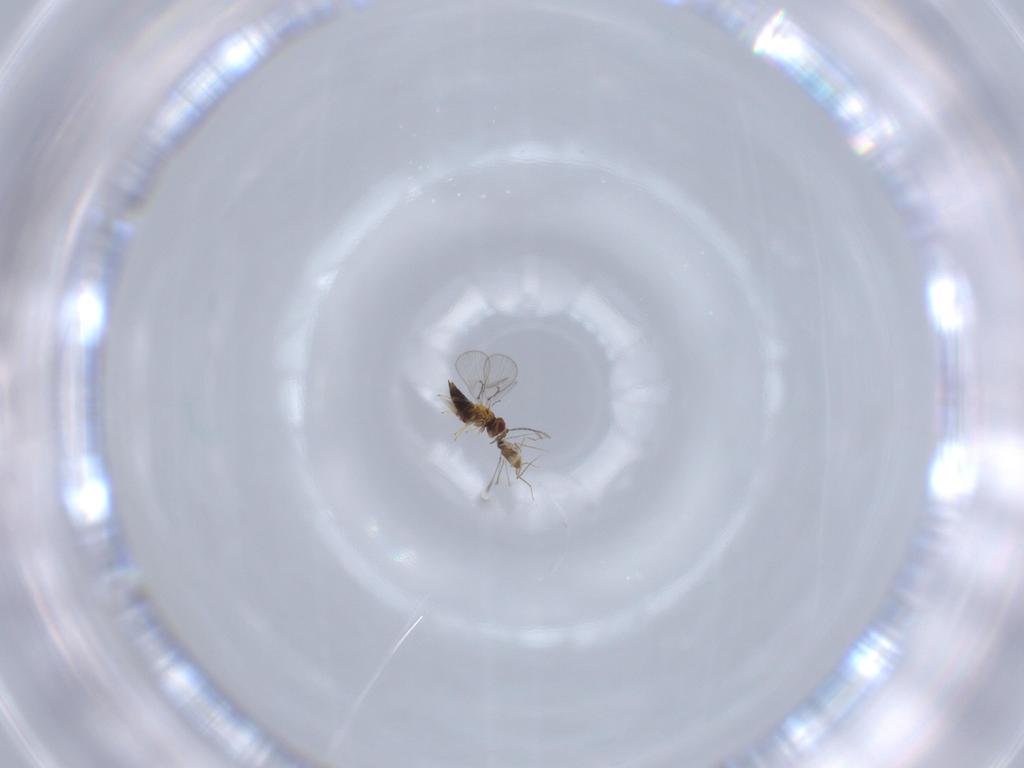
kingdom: Animalia
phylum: Arthropoda
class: Insecta
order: Hymenoptera
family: Trichogrammatidae
